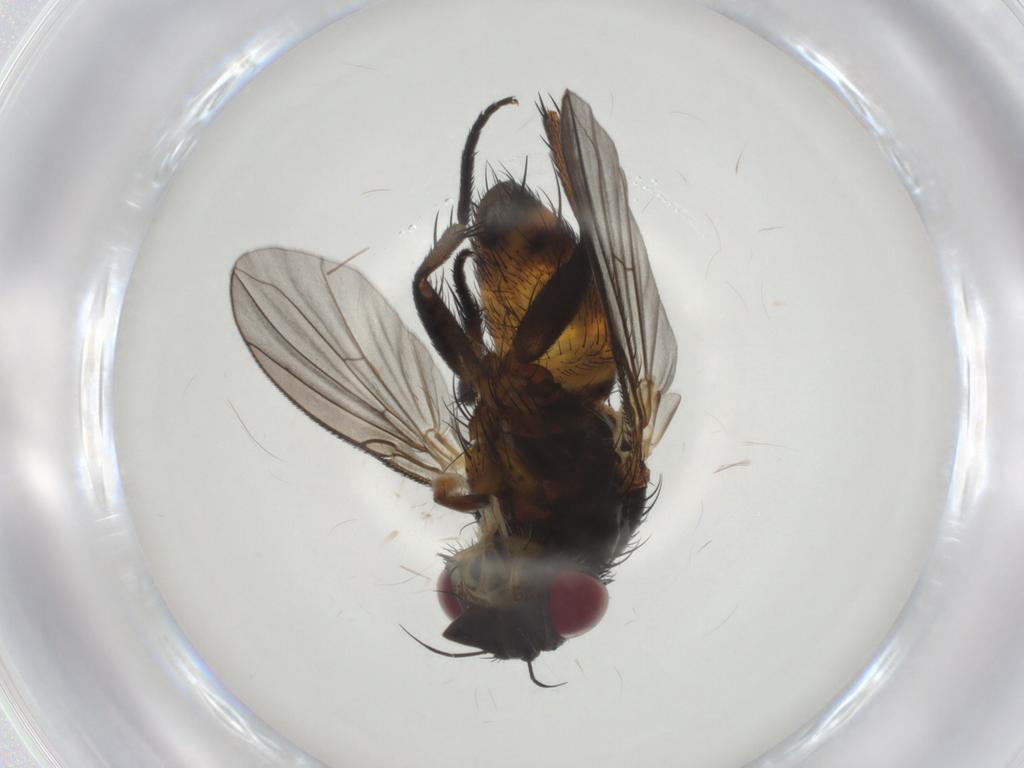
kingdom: Animalia
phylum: Arthropoda
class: Insecta
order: Diptera
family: Tachinidae
